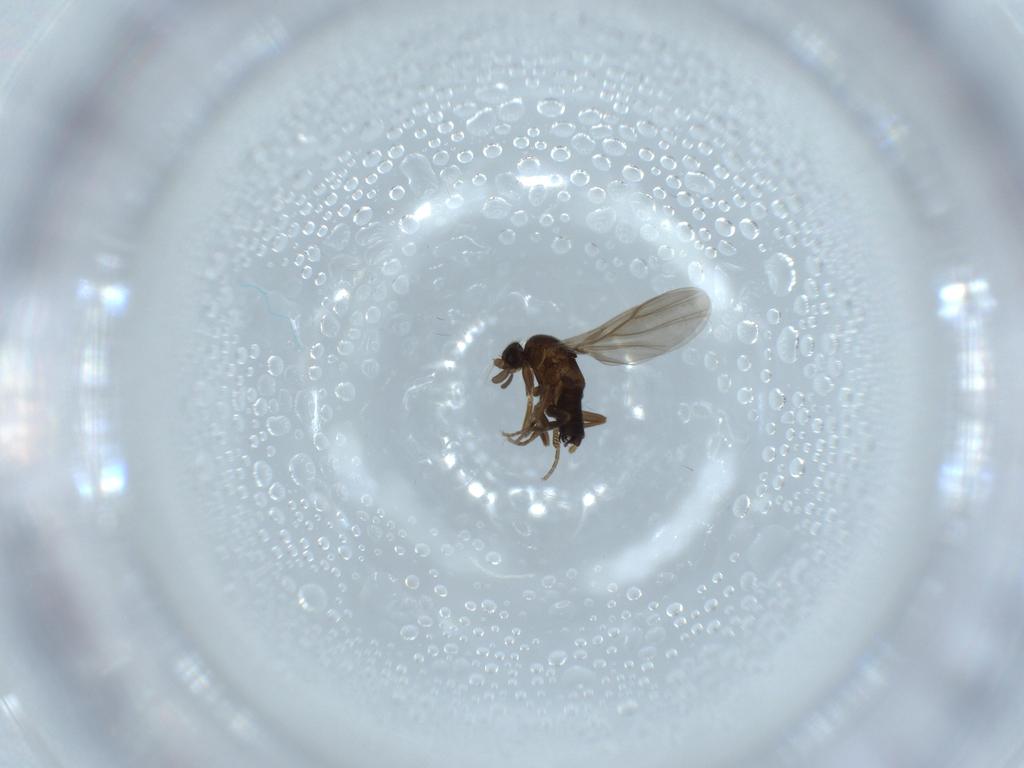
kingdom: Animalia
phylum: Arthropoda
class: Insecta
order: Diptera
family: Phoridae
